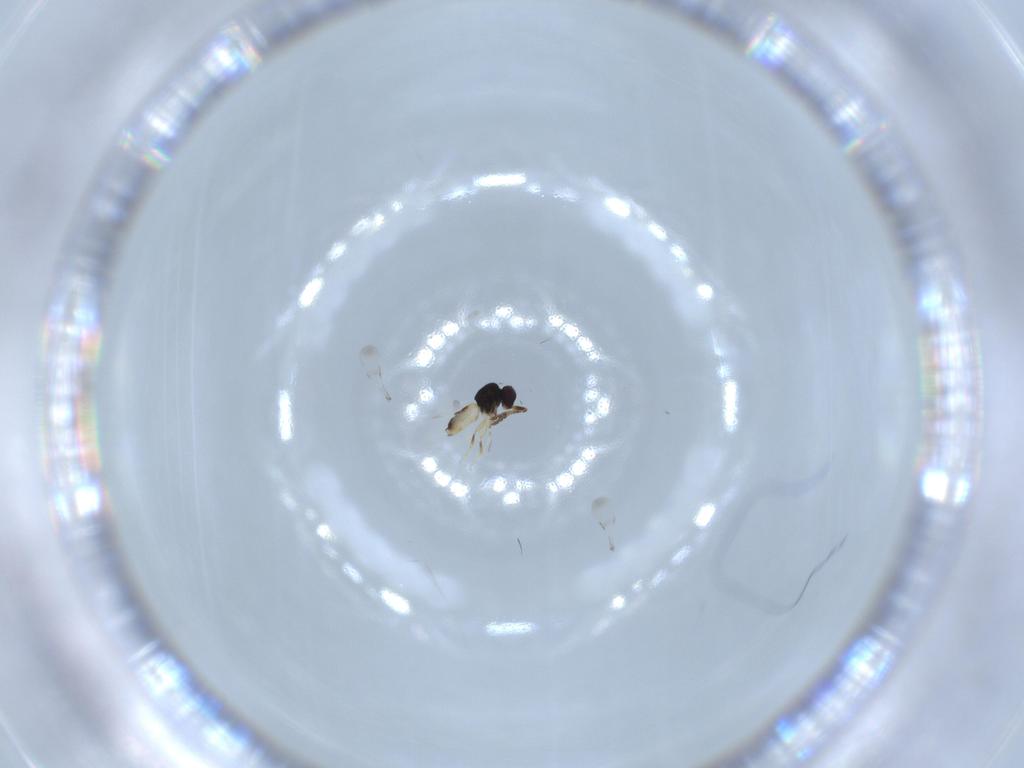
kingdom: Animalia
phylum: Arthropoda
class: Insecta
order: Diptera
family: Chloropidae
